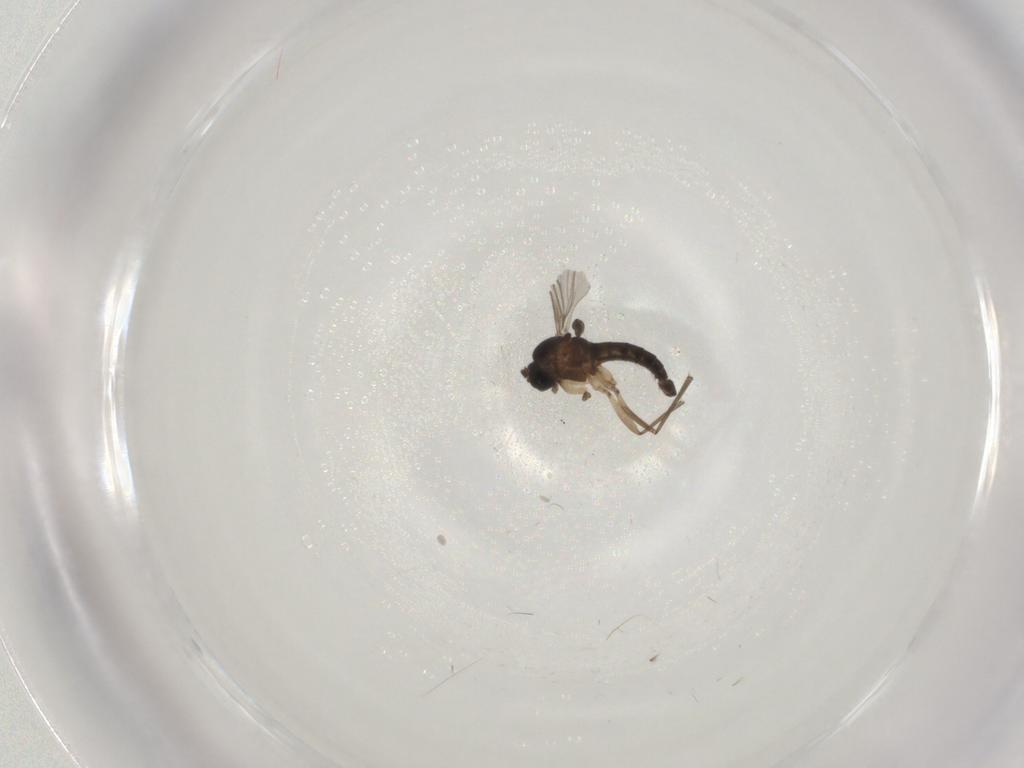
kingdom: Animalia
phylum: Arthropoda
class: Insecta
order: Diptera
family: Sciaridae
